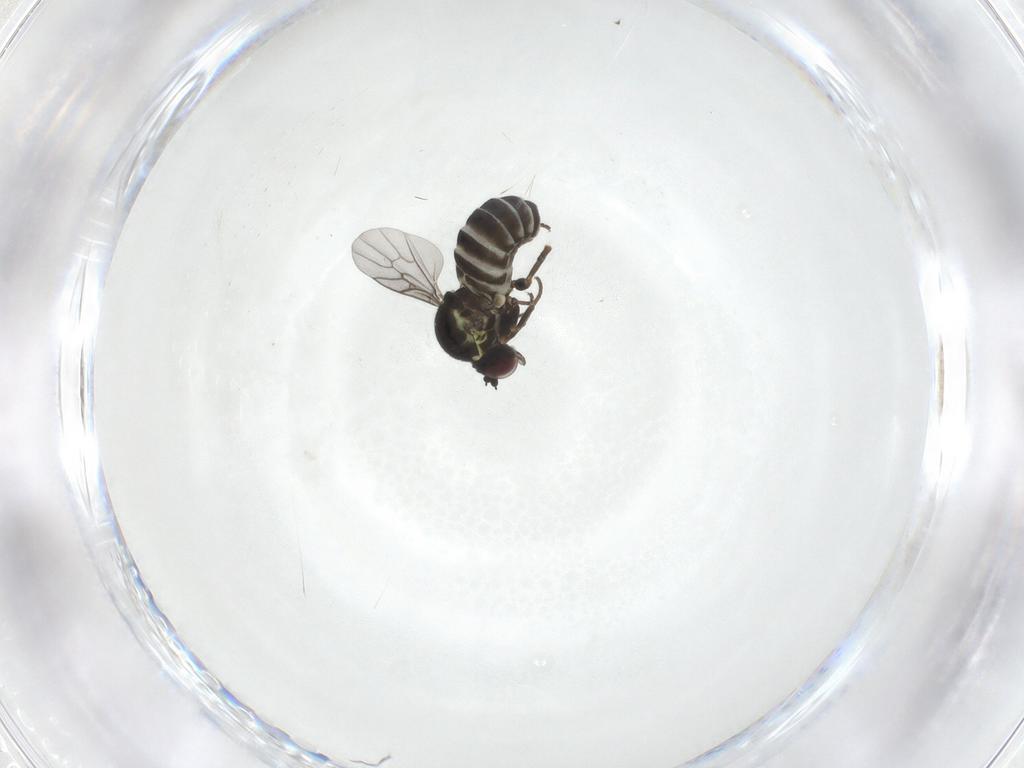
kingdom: Animalia
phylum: Arthropoda
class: Insecta
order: Diptera
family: Chironomidae
